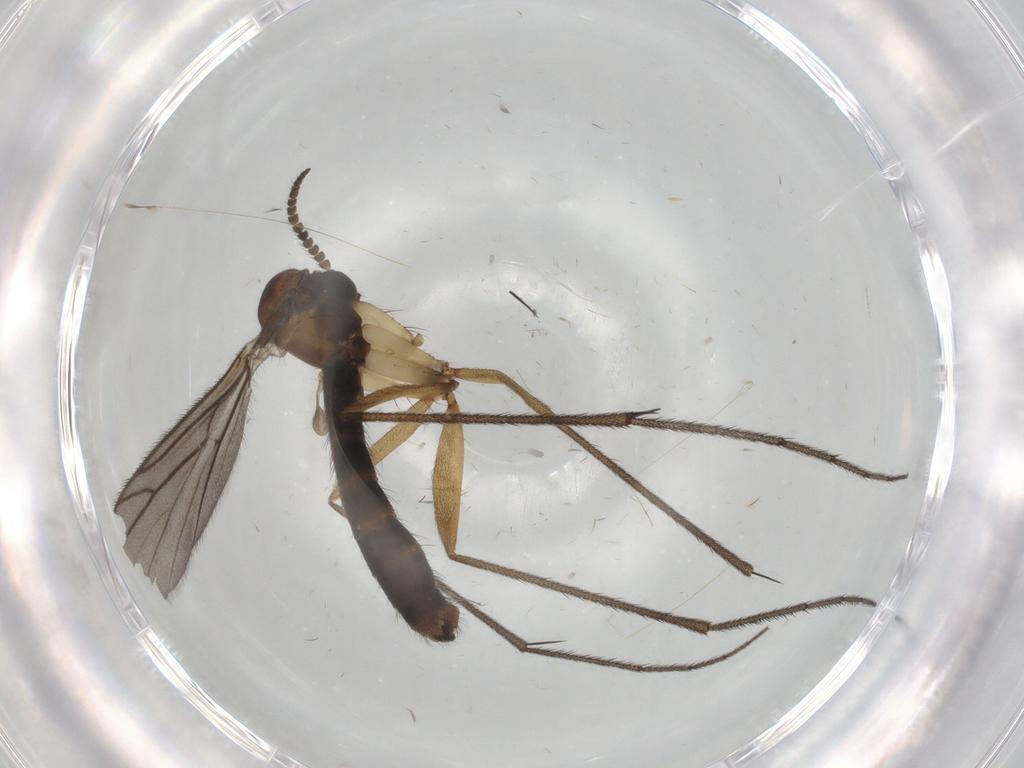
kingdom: Animalia
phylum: Arthropoda
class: Insecta
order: Diptera
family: Ditomyiidae
